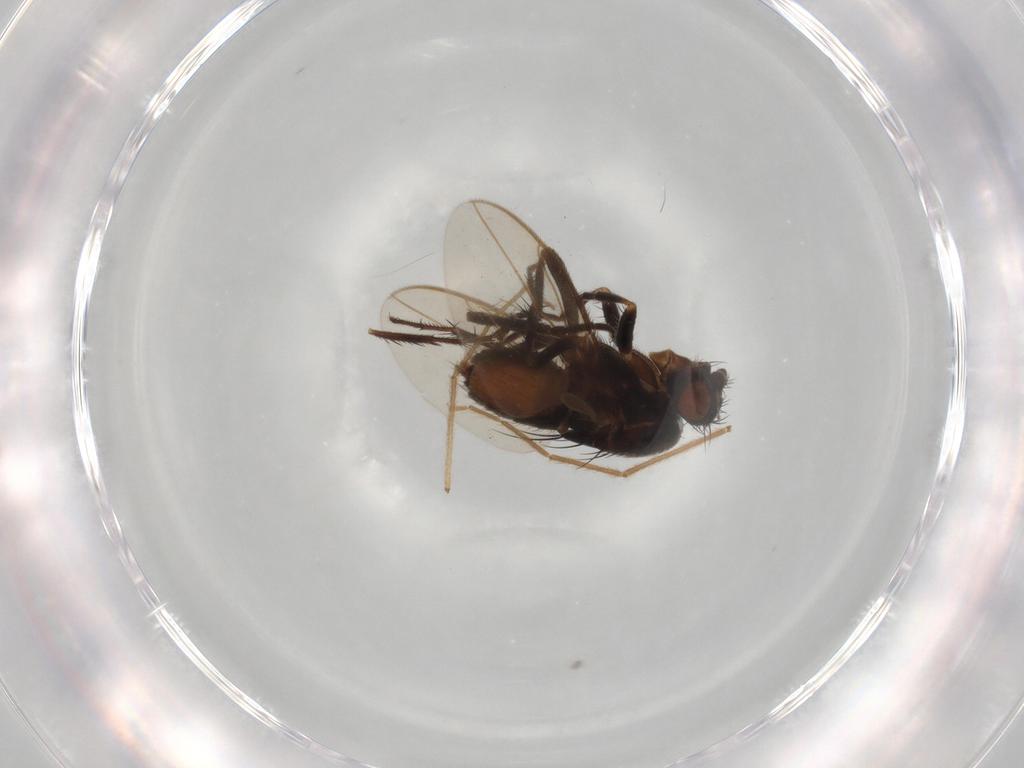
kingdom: Animalia
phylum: Arthropoda
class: Insecta
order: Diptera
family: Sphaeroceridae
